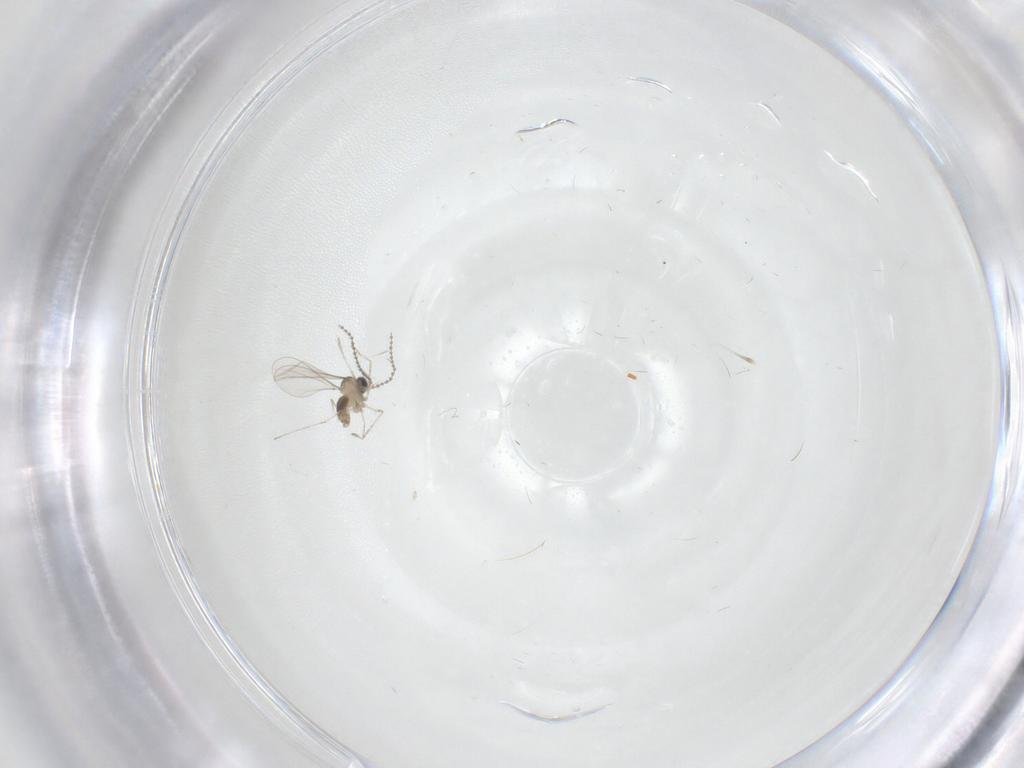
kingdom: Animalia
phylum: Arthropoda
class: Insecta
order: Diptera
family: Cecidomyiidae
